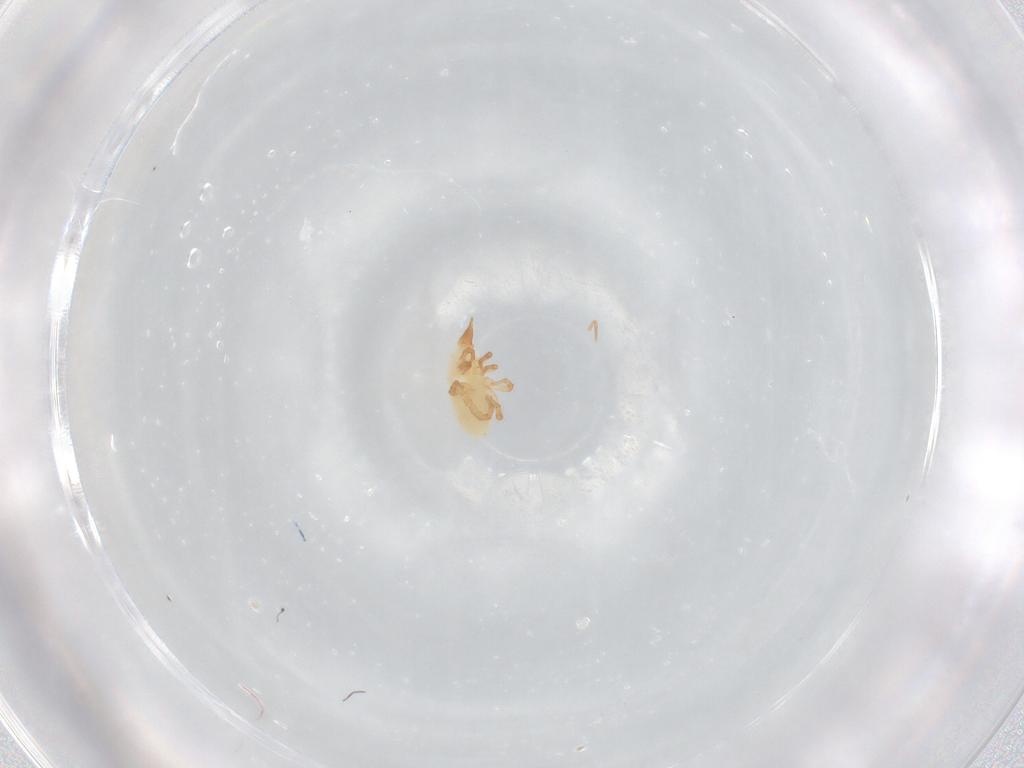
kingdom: Animalia
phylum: Arthropoda
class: Arachnida
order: Trombidiformes
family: Bdellidae
